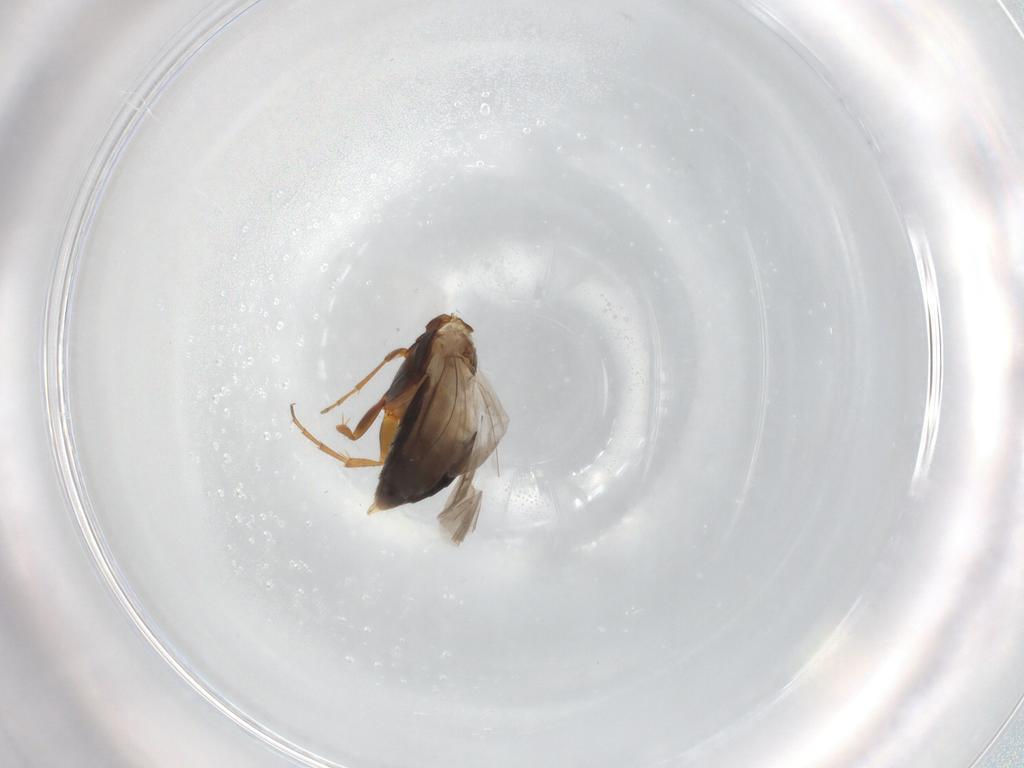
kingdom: Animalia
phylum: Arthropoda
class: Insecta
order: Coleoptera
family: Scraptiidae
